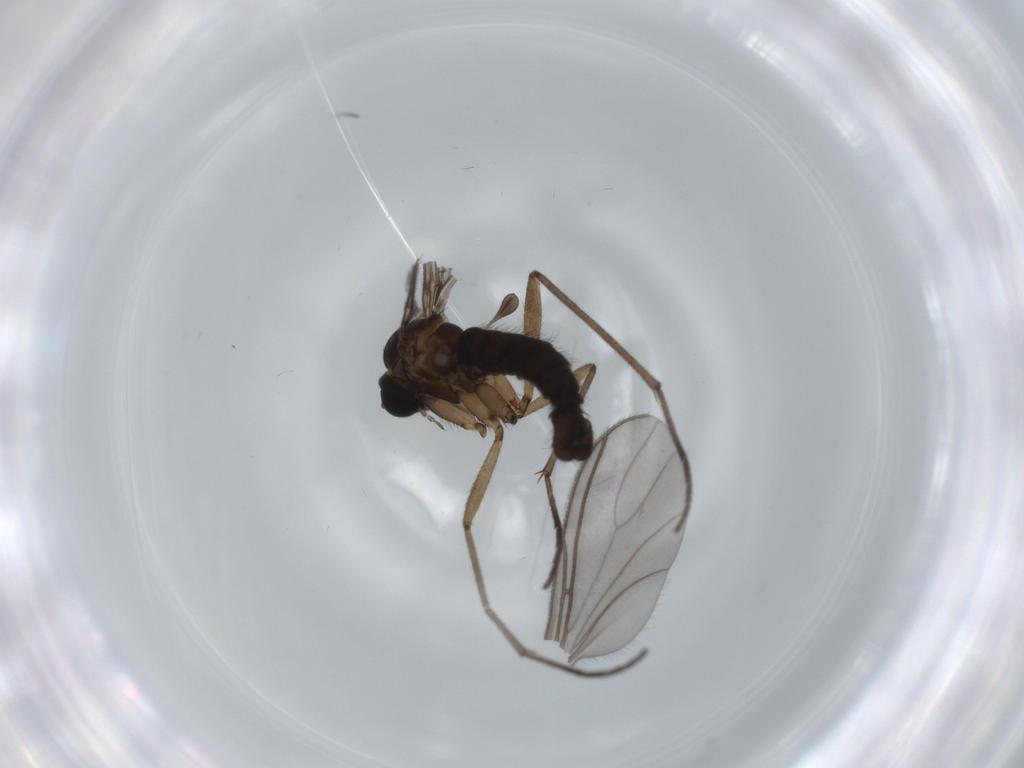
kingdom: Animalia
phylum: Arthropoda
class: Insecta
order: Diptera
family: Sciaridae
